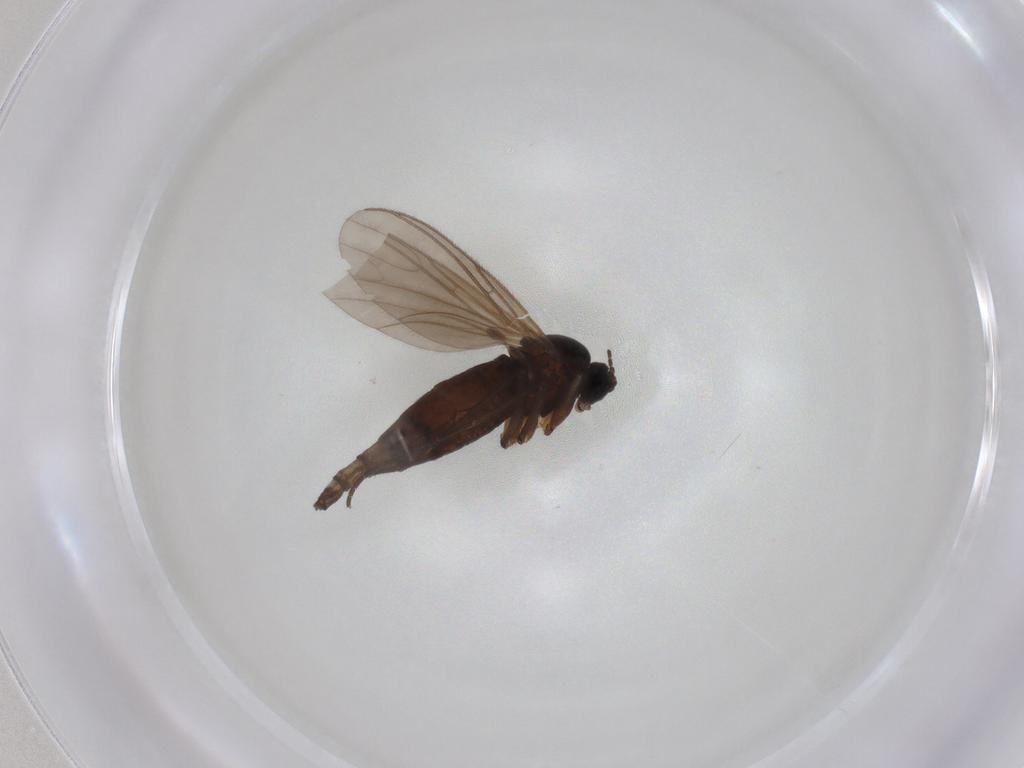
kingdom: Animalia
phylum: Arthropoda
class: Insecta
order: Diptera
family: Sciaridae
